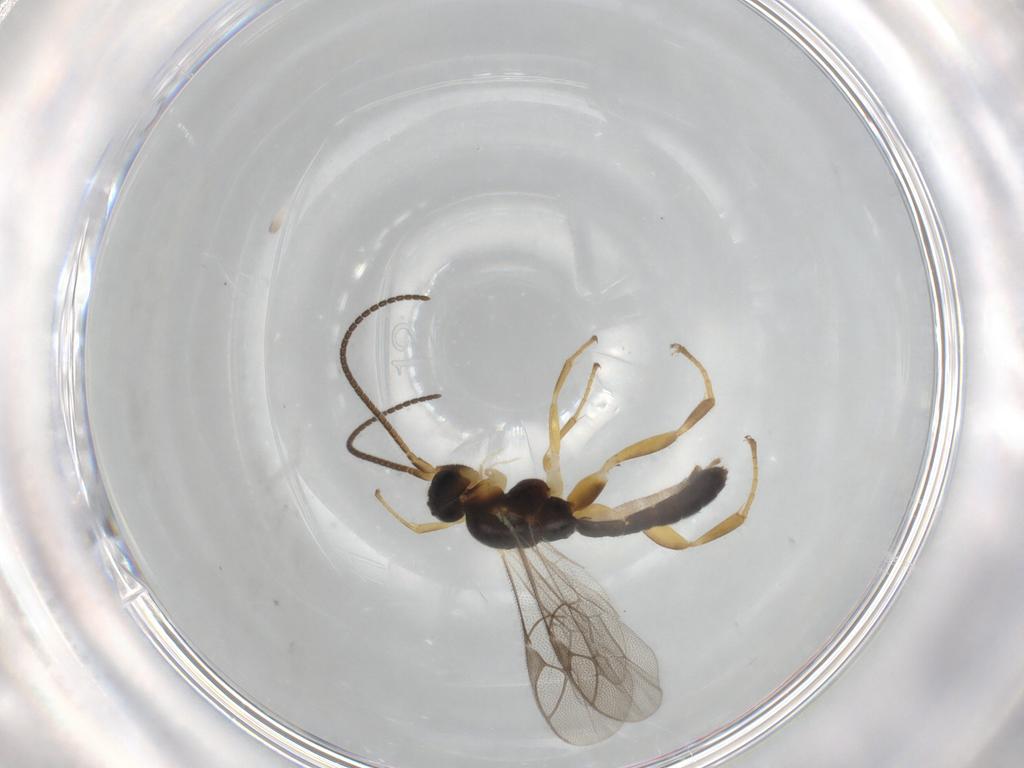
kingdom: Animalia
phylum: Arthropoda
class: Insecta
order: Hymenoptera
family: Ichneumonidae
